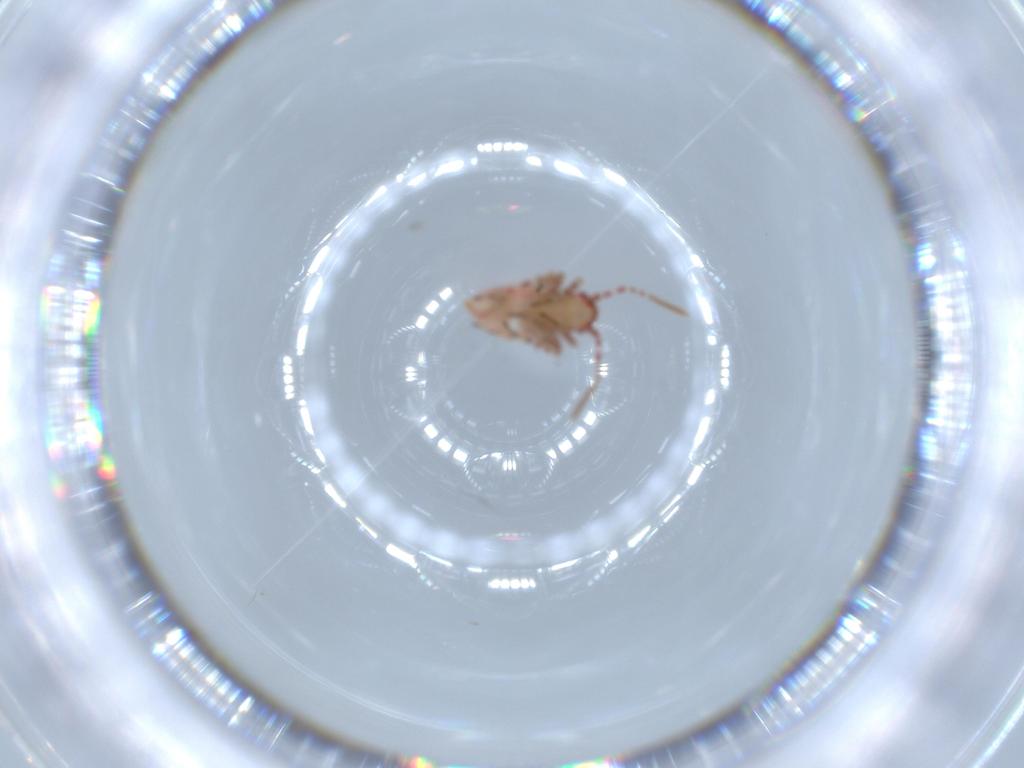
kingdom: Animalia
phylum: Arthropoda
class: Insecta
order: Hemiptera
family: Miridae
